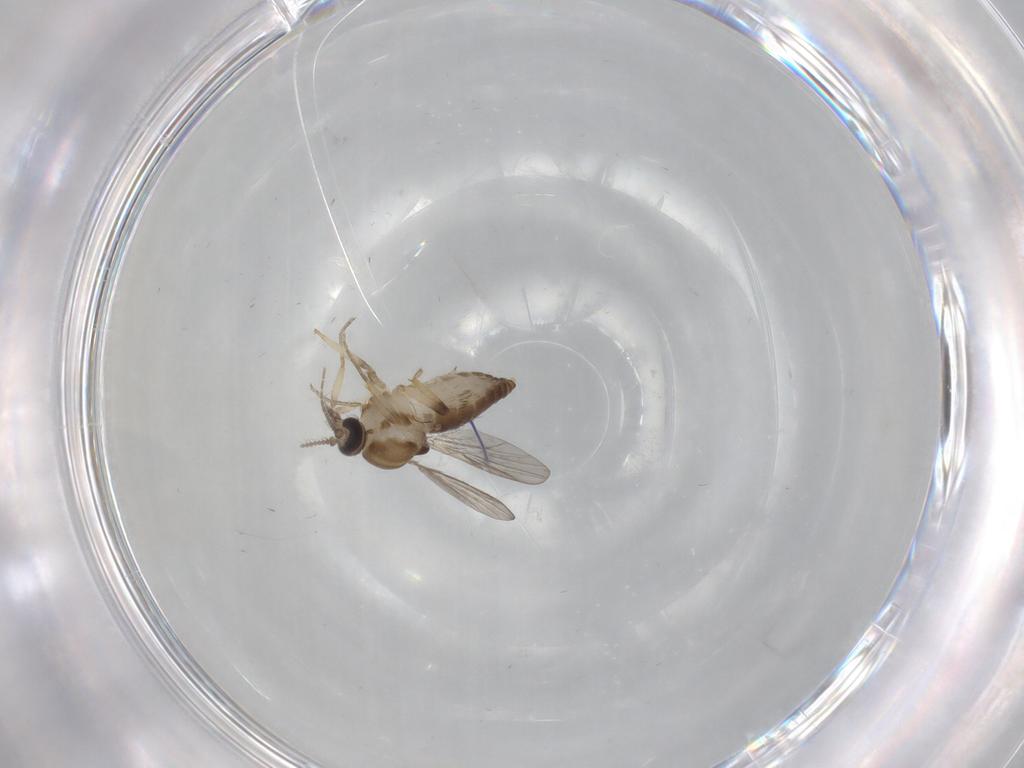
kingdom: Animalia
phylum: Arthropoda
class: Insecta
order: Diptera
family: Ceratopogonidae
